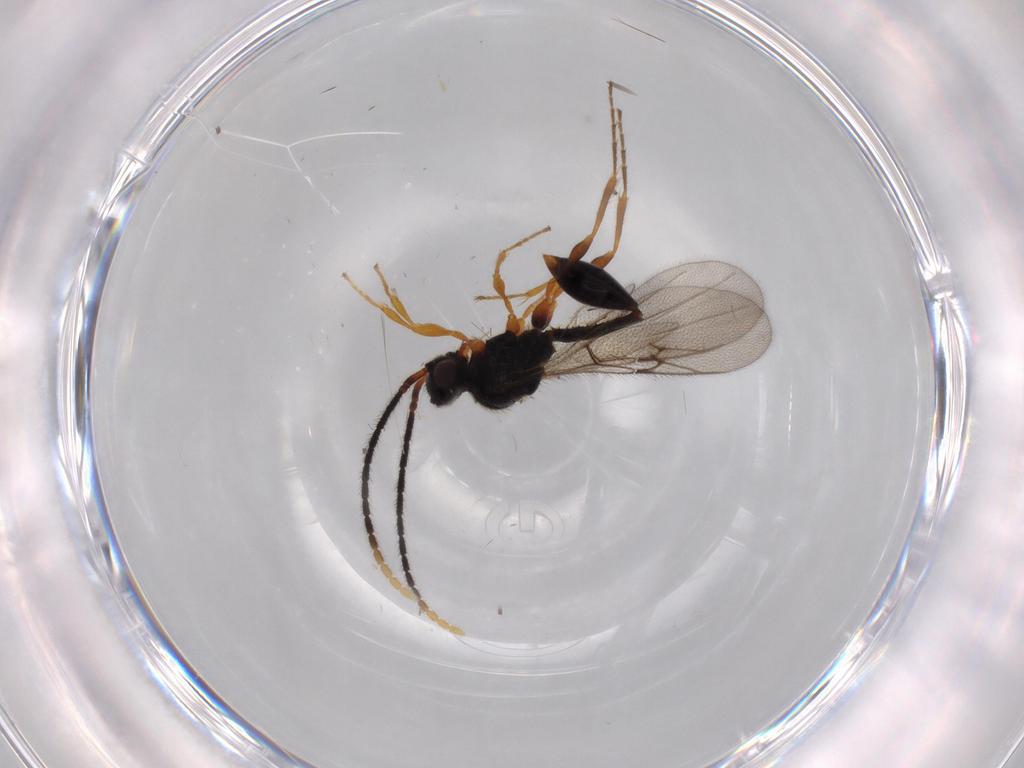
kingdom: Animalia
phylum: Arthropoda
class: Insecta
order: Hymenoptera
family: Diapriidae
